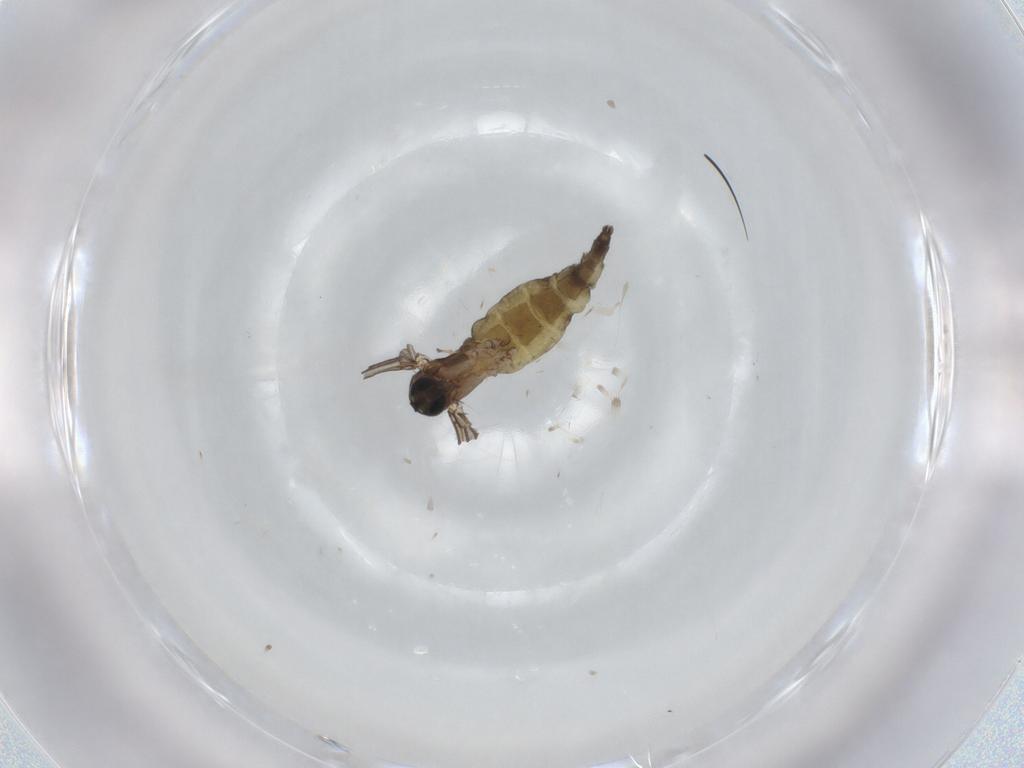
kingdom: Animalia
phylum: Arthropoda
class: Insecta
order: Diptera
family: Sciaridae
